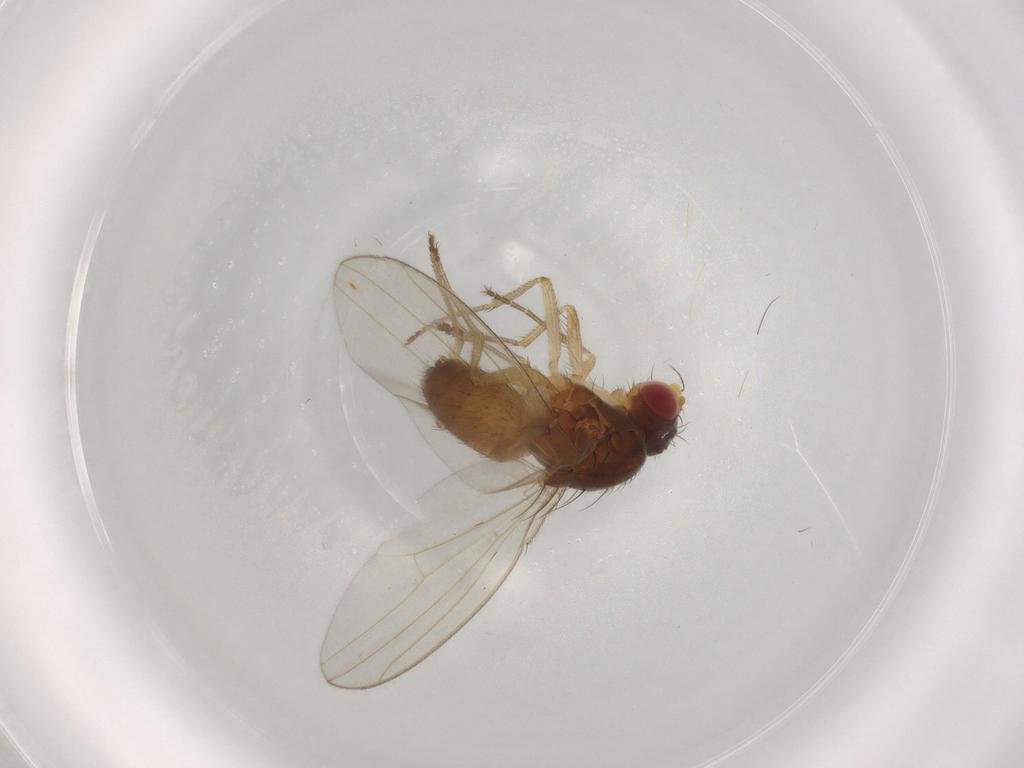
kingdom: Animalia
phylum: Arthropoda
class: Insecta
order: Diptera
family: Drosophilidae
